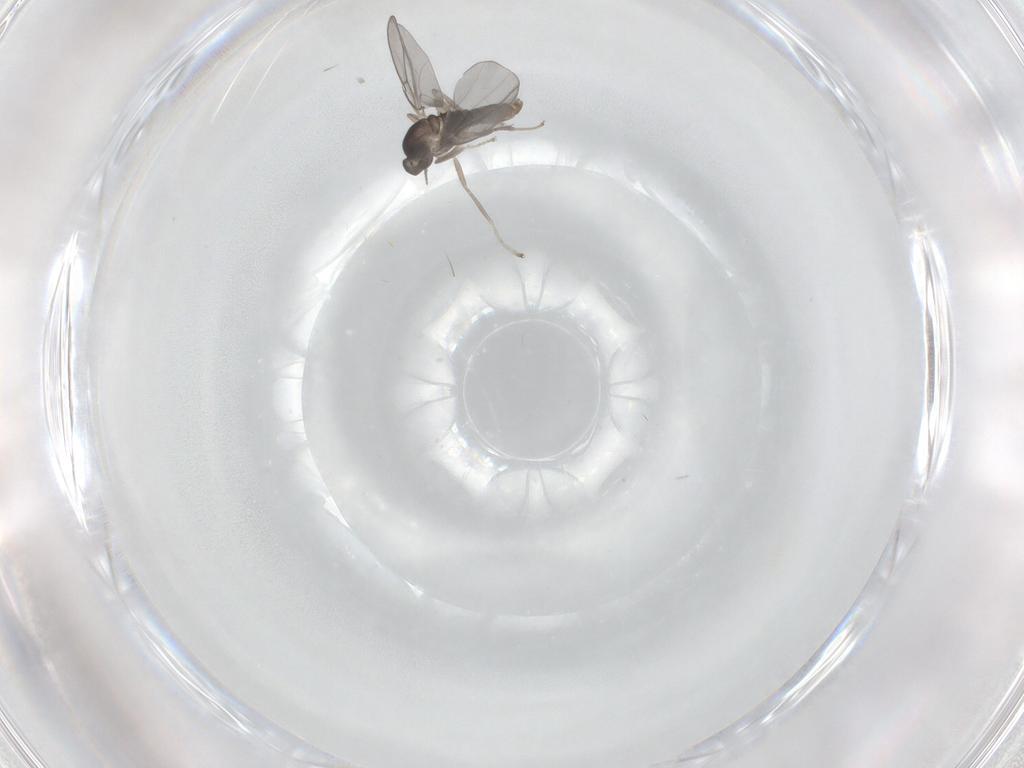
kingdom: Animalia
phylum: Arthropoda
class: Insecta
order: Diptera
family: Cecidomyiidae
